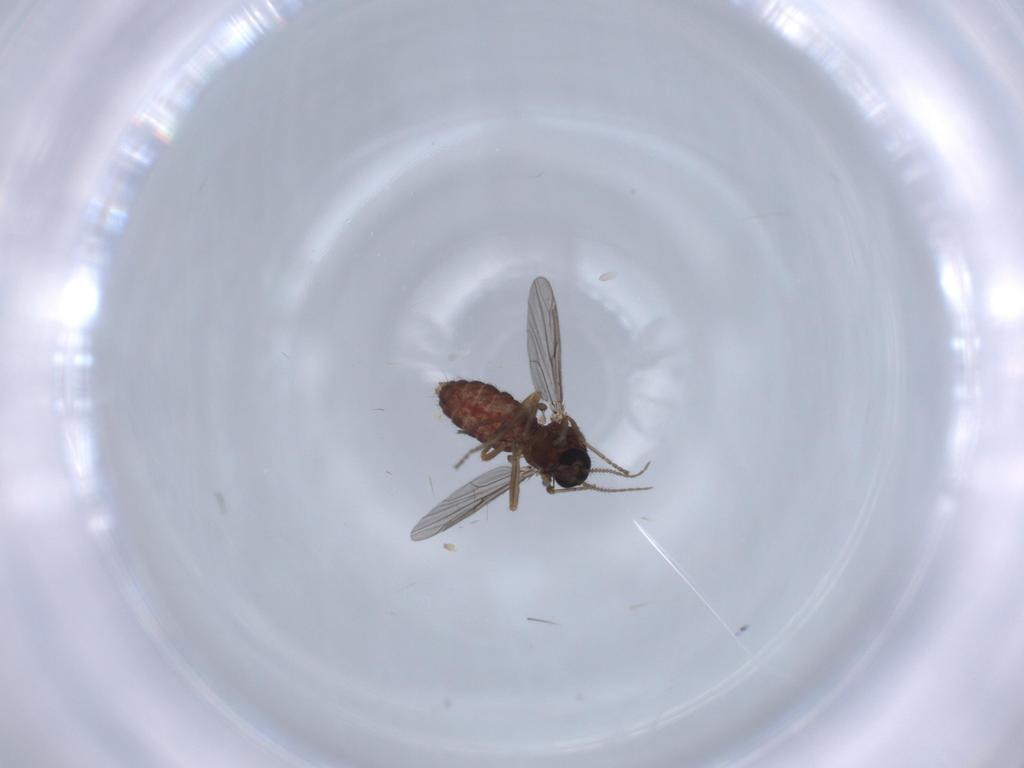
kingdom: Animalia
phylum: Arthropoda
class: Insecta
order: Diptera
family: Ceratopogonidae
